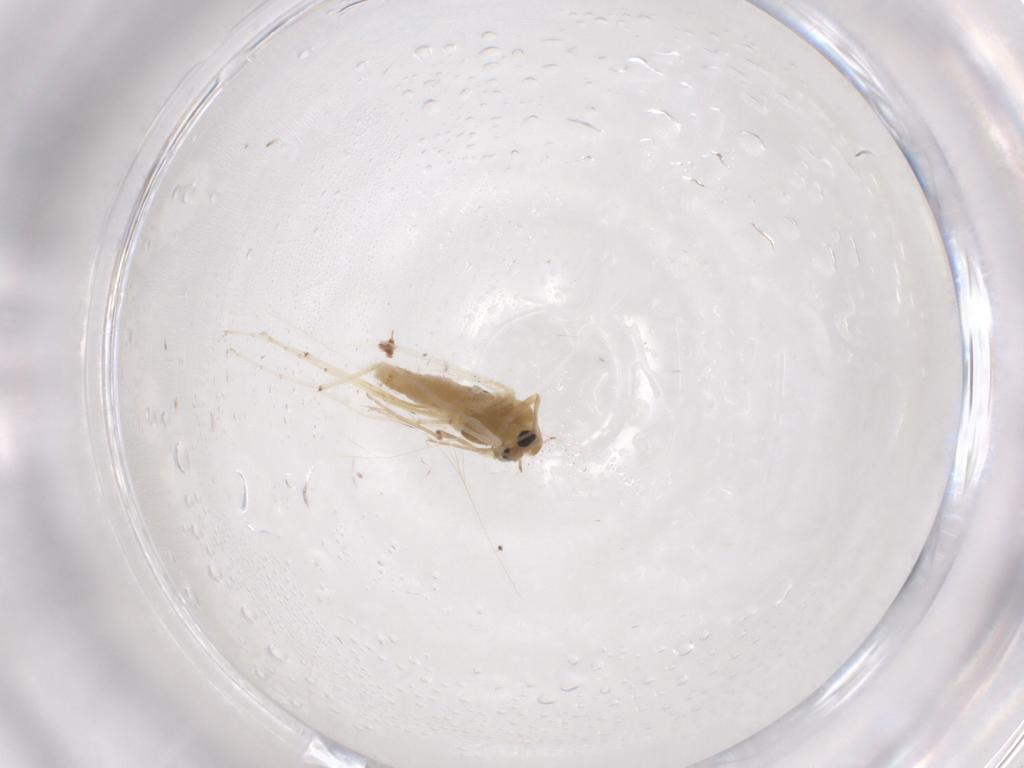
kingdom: Animalia
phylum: Arthropoda
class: Insecta
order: Diptera
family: Chironomidae
